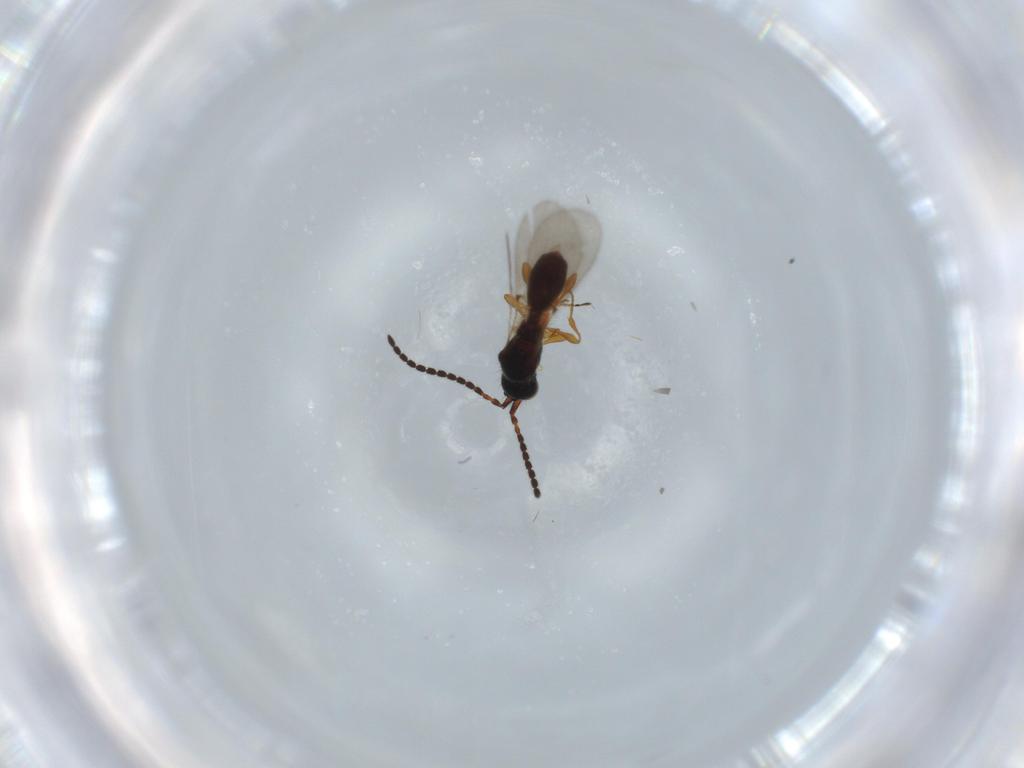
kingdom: Animalia
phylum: Arthropoda
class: Insecta
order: Hymenoptera
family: Diapriidae
